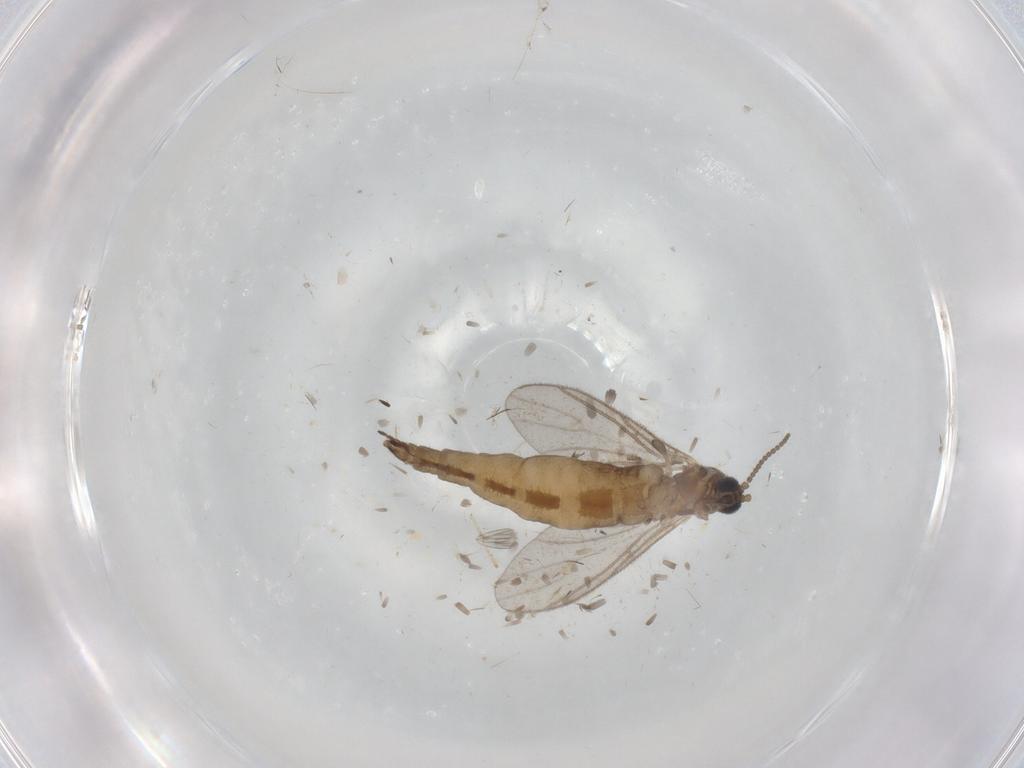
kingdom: Animalia
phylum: Arthropoda
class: Insecta
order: Diptera
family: Sciaridae
